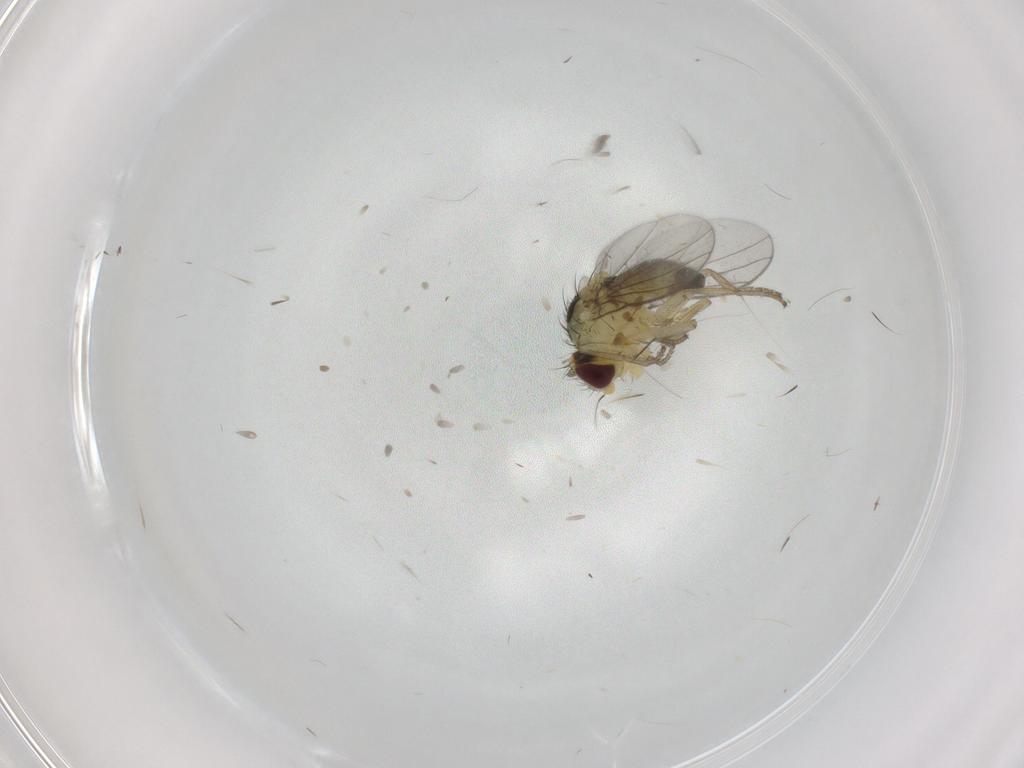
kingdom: Animalia
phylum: Arthropoda
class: Insecta
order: Diptera
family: Agromyzidae
